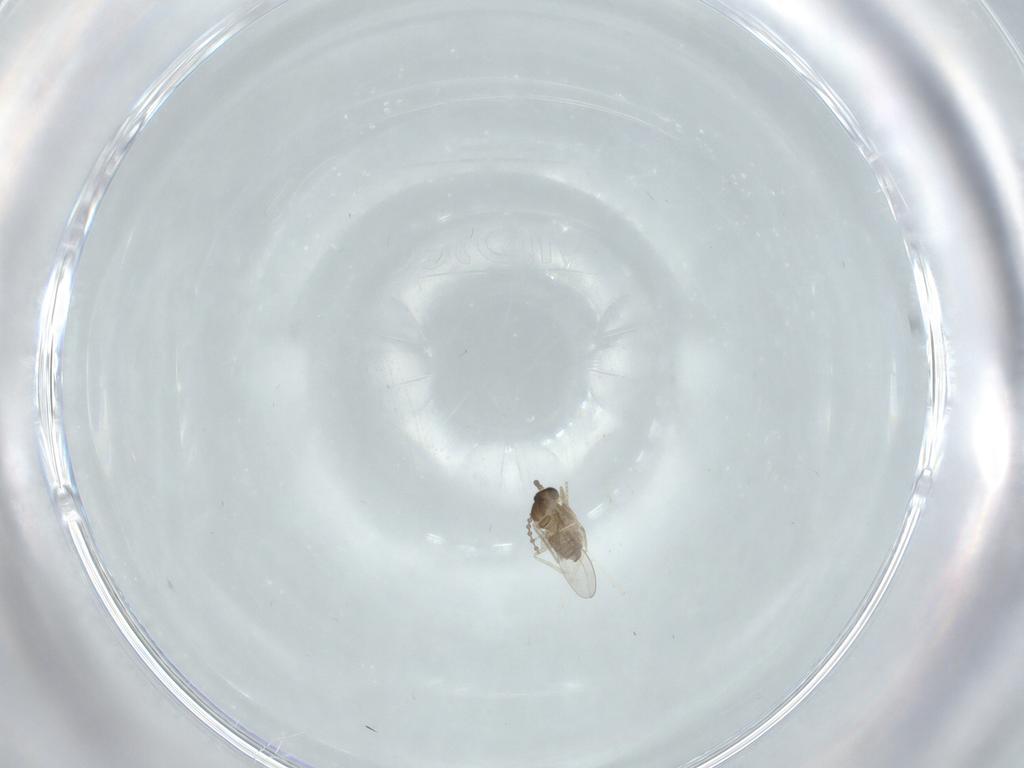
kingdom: Animalia
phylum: Arthropoda
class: Insecta
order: Diptera
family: Cecidomyiidae
